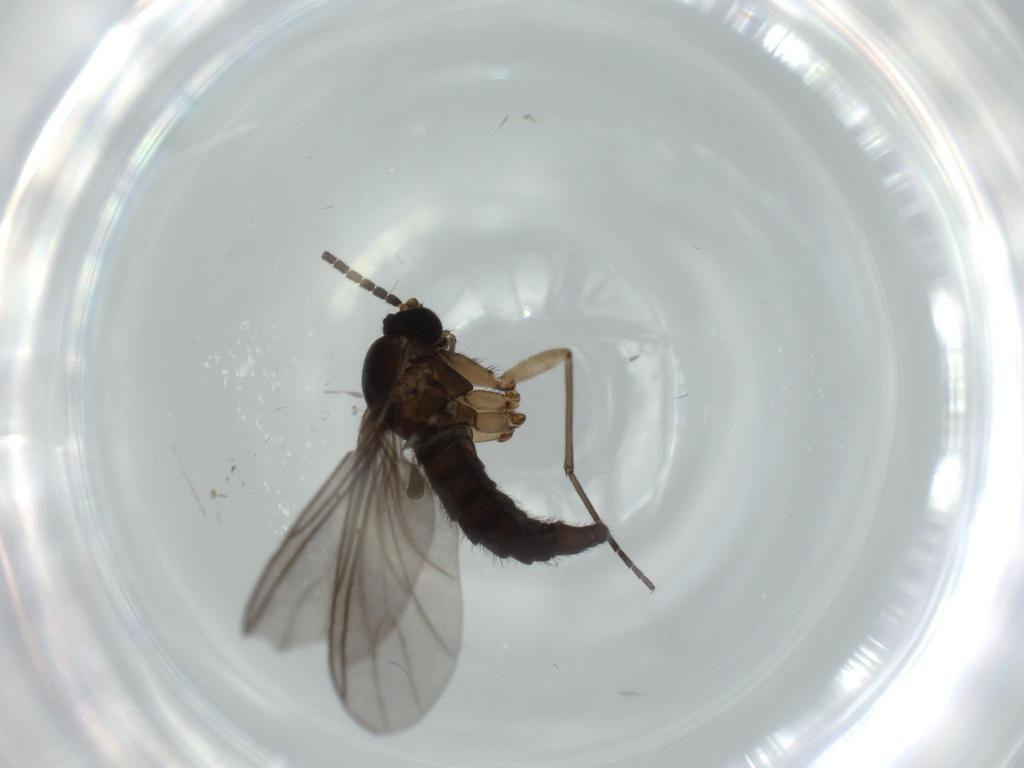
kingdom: Animalia
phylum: Arthropoda
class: Insecta
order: Diptera
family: Sciaridae
